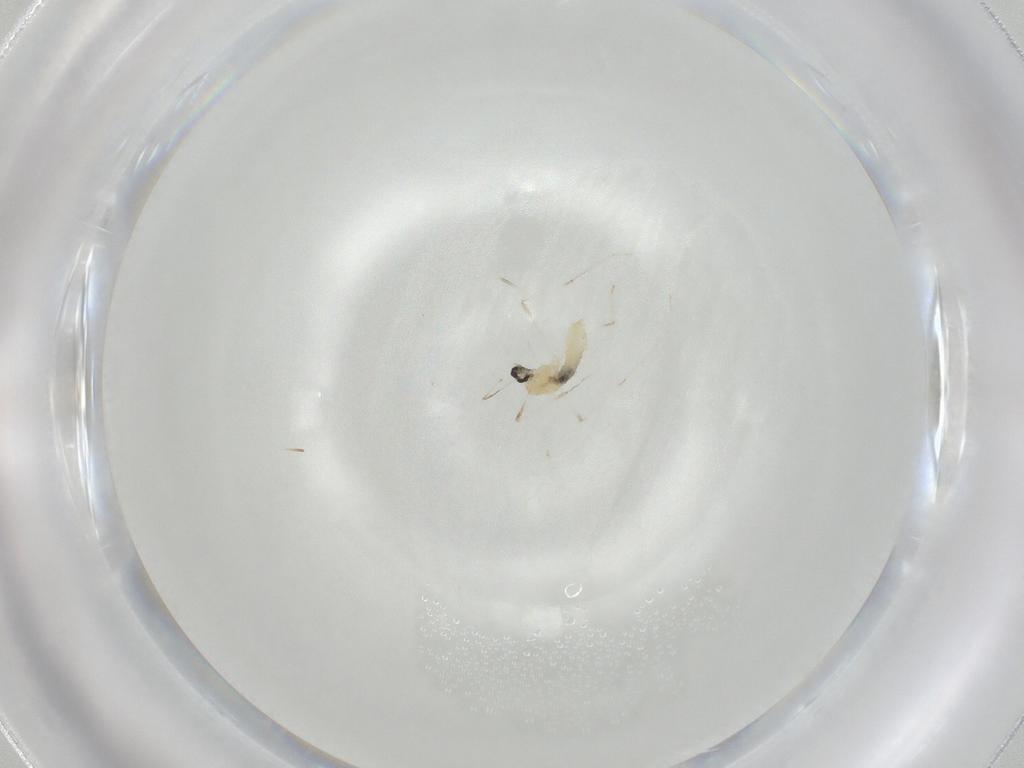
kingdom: Animalia
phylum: Arthropoda
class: Insecta
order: Diptera
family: Cecidomyiidae
